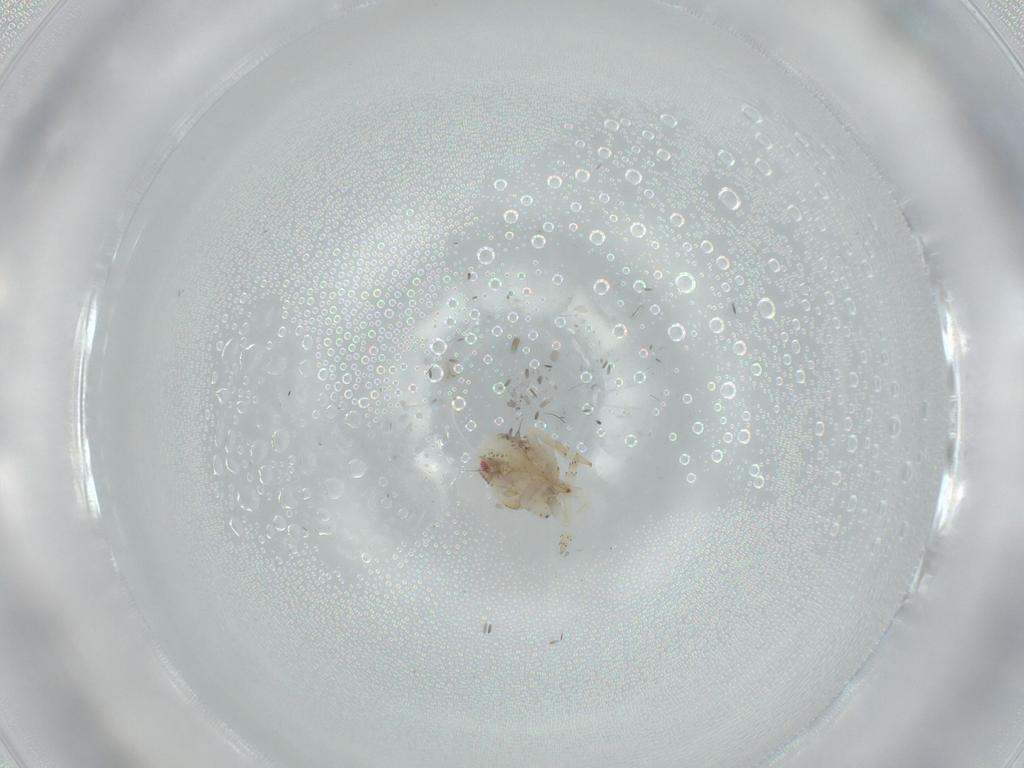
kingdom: Animalia
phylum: Arthropoda
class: Insecta
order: Hemiptera
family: Acanaloniidae
